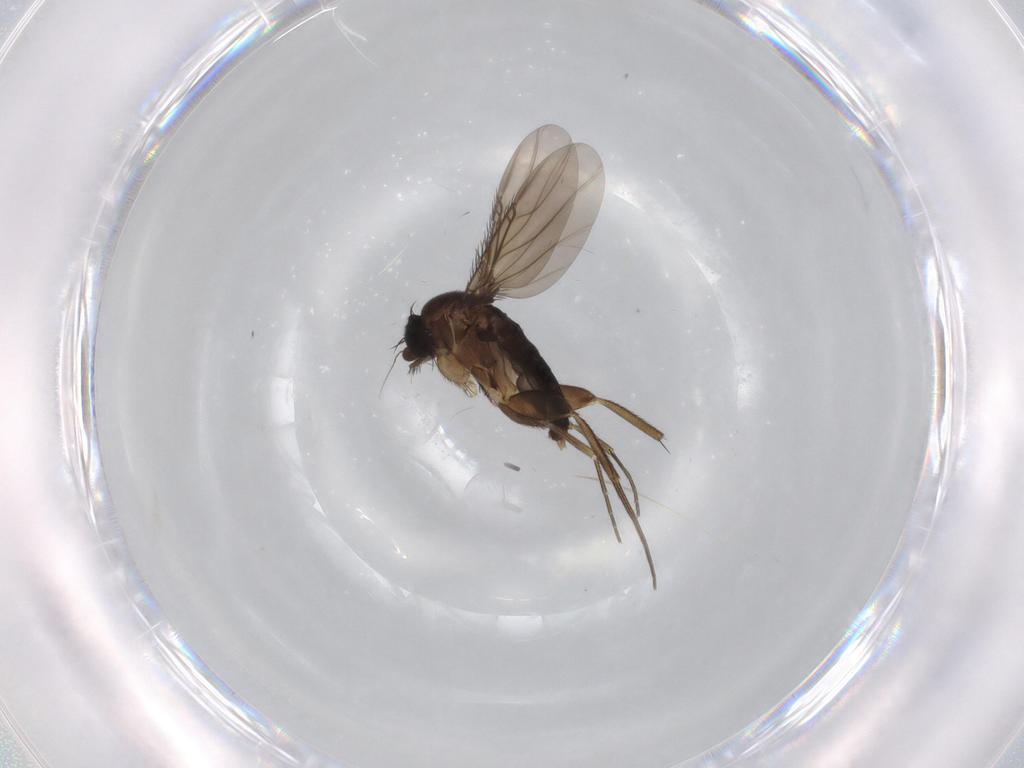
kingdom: Animalia
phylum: Arthropoda
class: Insecta
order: Diptera
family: Phoridae
